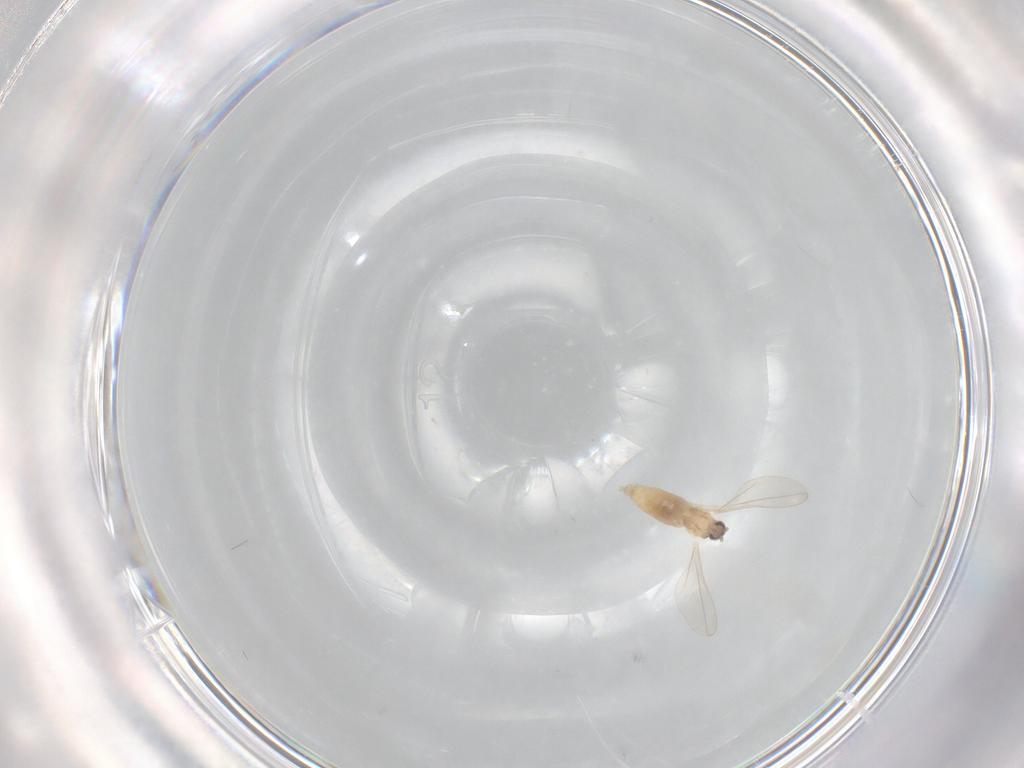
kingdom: Animalia
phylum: Arthropoda
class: Insecta
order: Diptera
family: Cecidomyiidae
